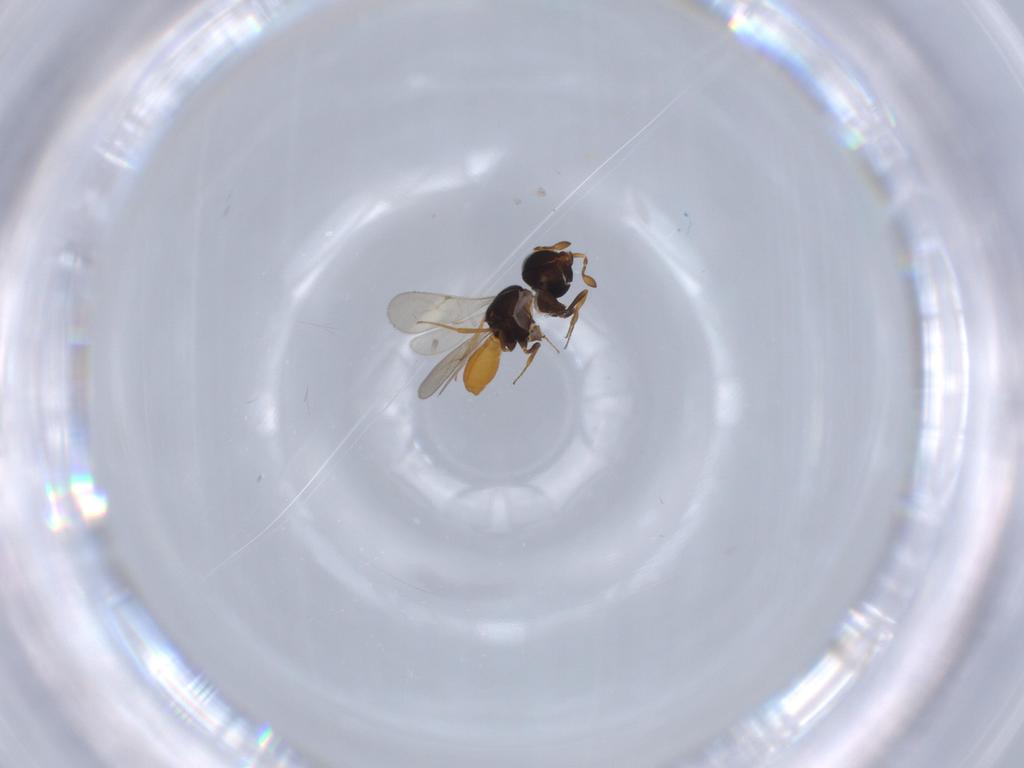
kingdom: Animalia
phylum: Arthropoda
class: Insecta
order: Hymenoptera
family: Scelionidae
